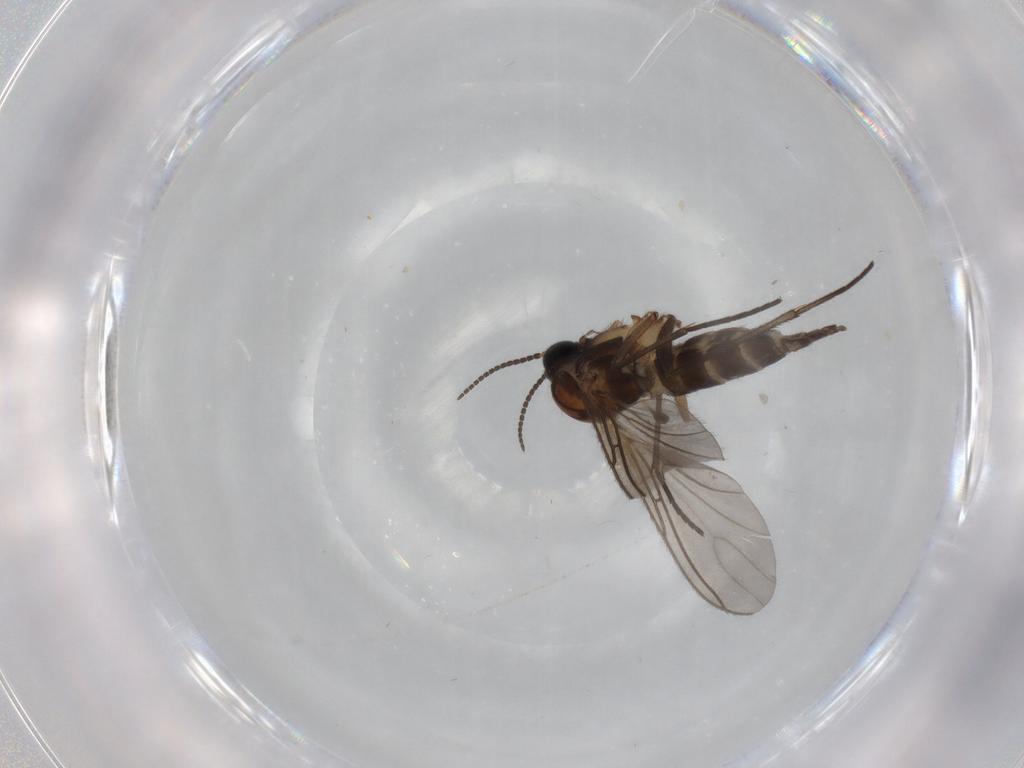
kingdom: Animalia
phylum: Arthropoda
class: Insecta
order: Diptera
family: Sciaridae
